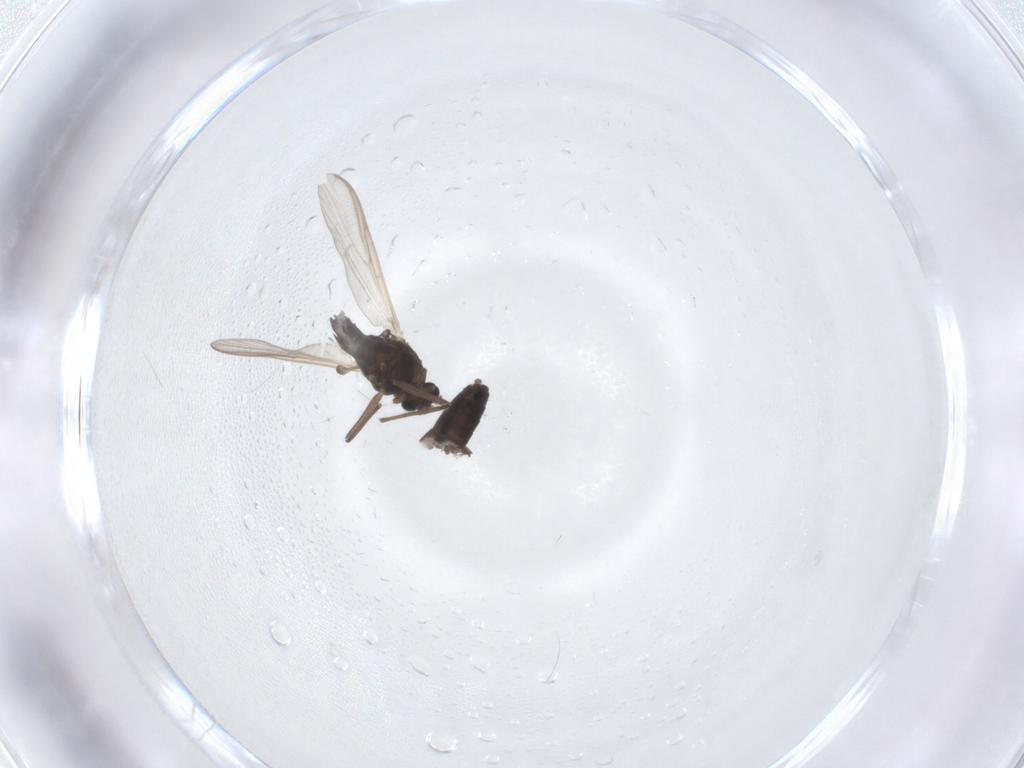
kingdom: Animalia
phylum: Arthropoda
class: Insecta
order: Diptera
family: Chironomidae
